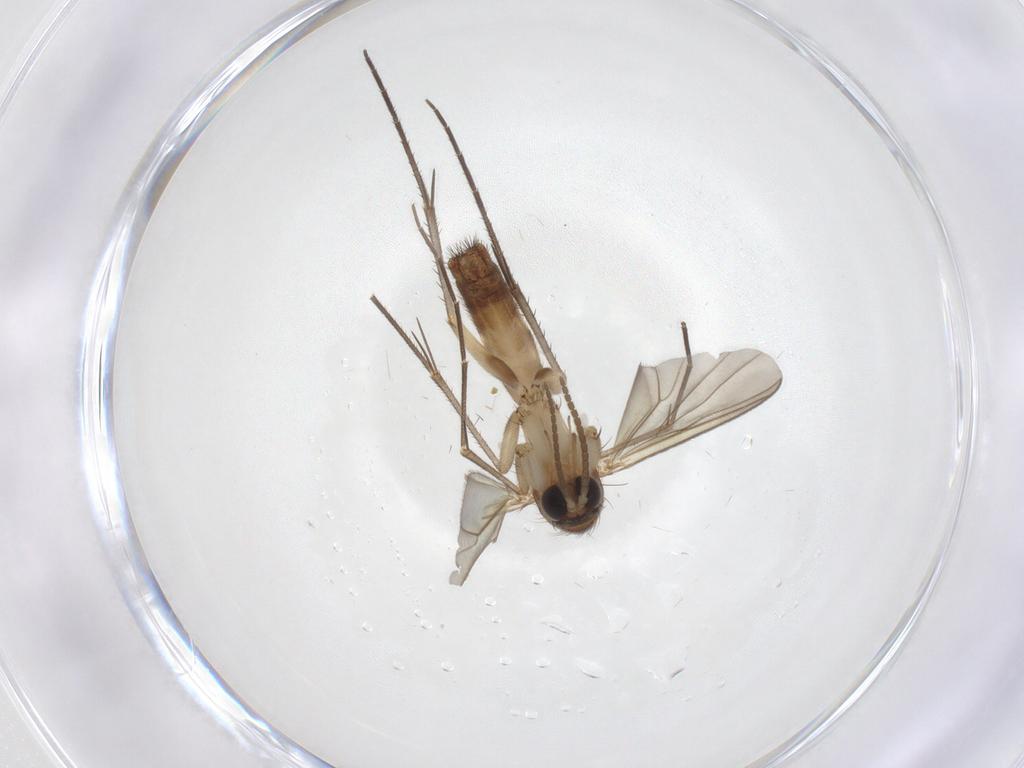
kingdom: Animalia
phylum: Arthropoda
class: Insecta
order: Diptera
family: Mycetophilidae
